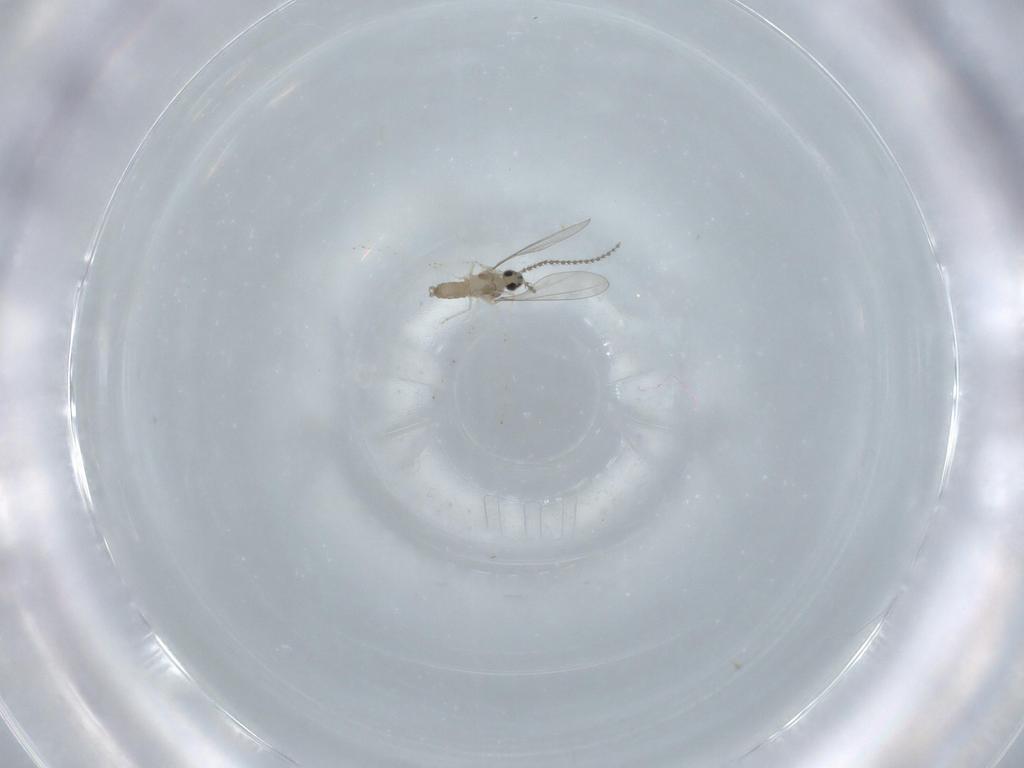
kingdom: Animalia
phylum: Arthropoda
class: Insecta
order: Diptera
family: Cecidomyiidae
